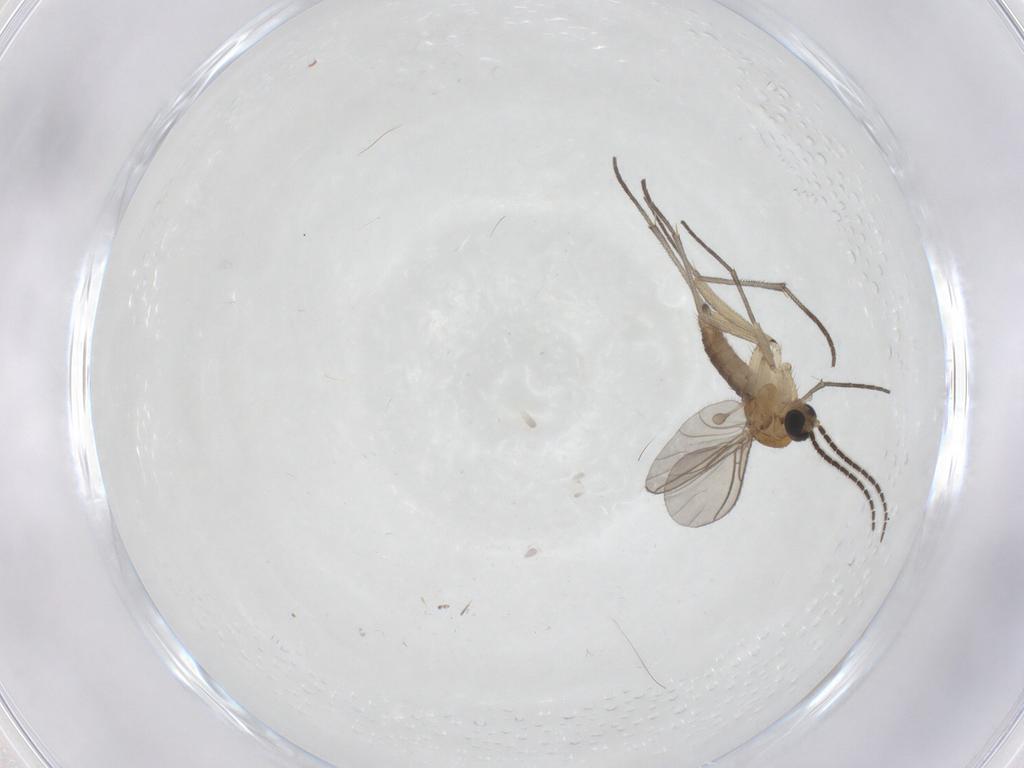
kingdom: Animalia
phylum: Arthropoda
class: Insecta
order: Diptera
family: Sciaridae
